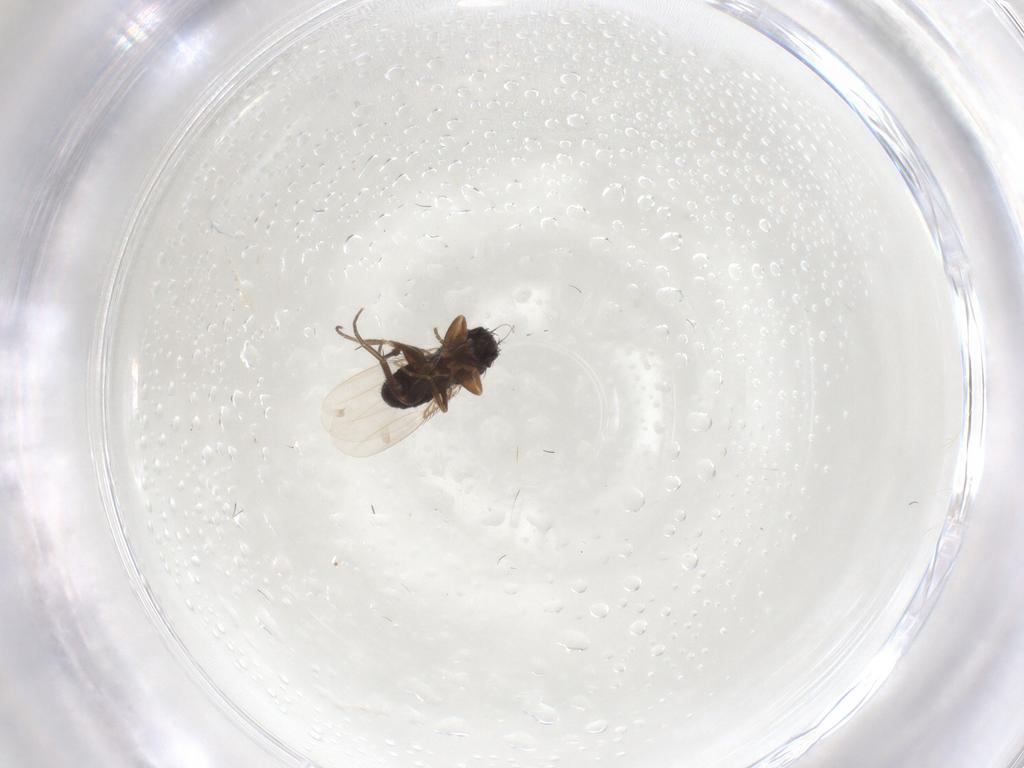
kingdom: Animalia
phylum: Arthropoda
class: Insecta
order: Diptera
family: Phoridae
